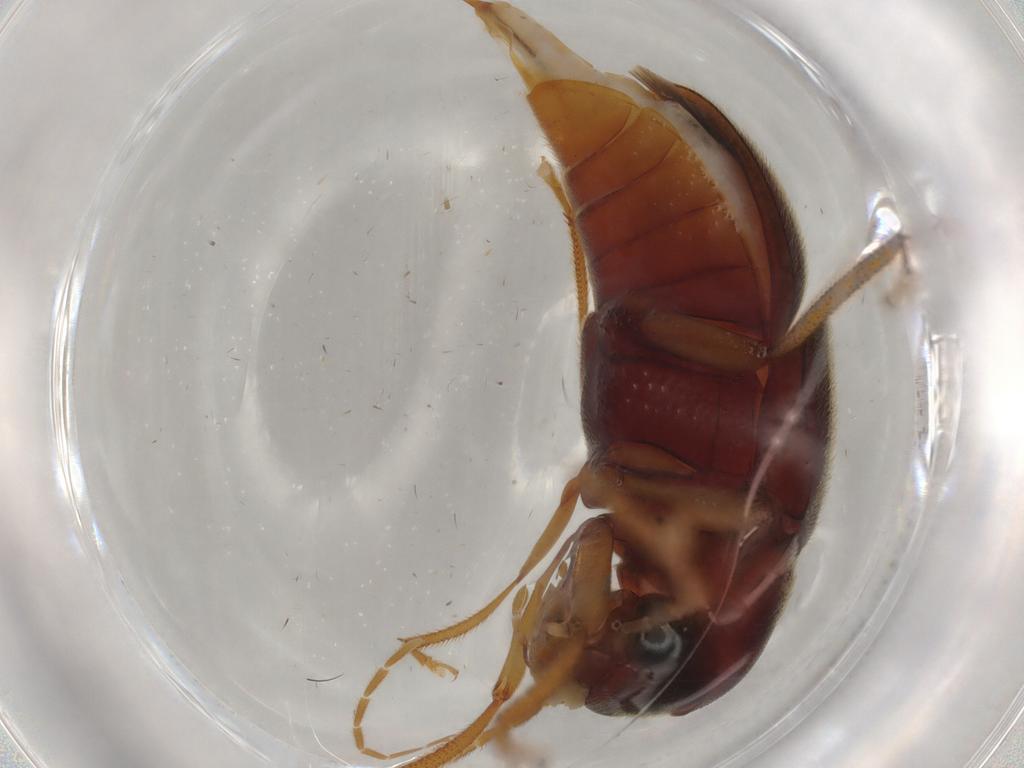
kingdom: Animalia
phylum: Arthropoda
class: Insecta
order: Coleoptera
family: Ptilodactylidae
